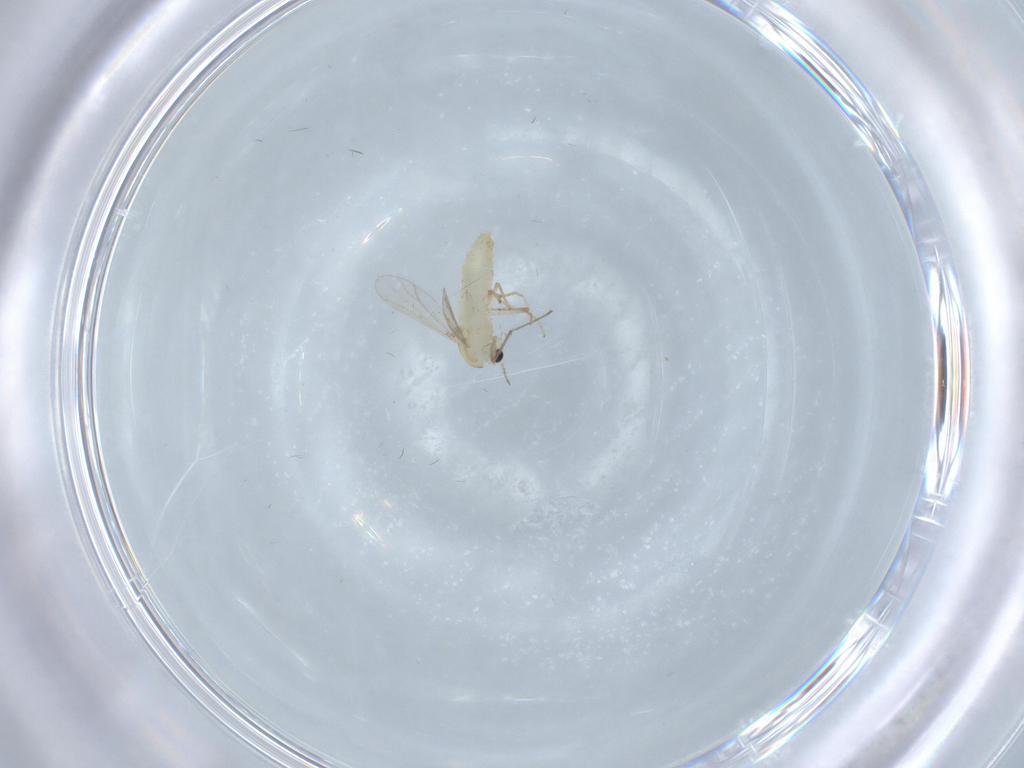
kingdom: Animalia
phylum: Arthropoda
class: Insecta
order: Diptera
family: Chironomidae
